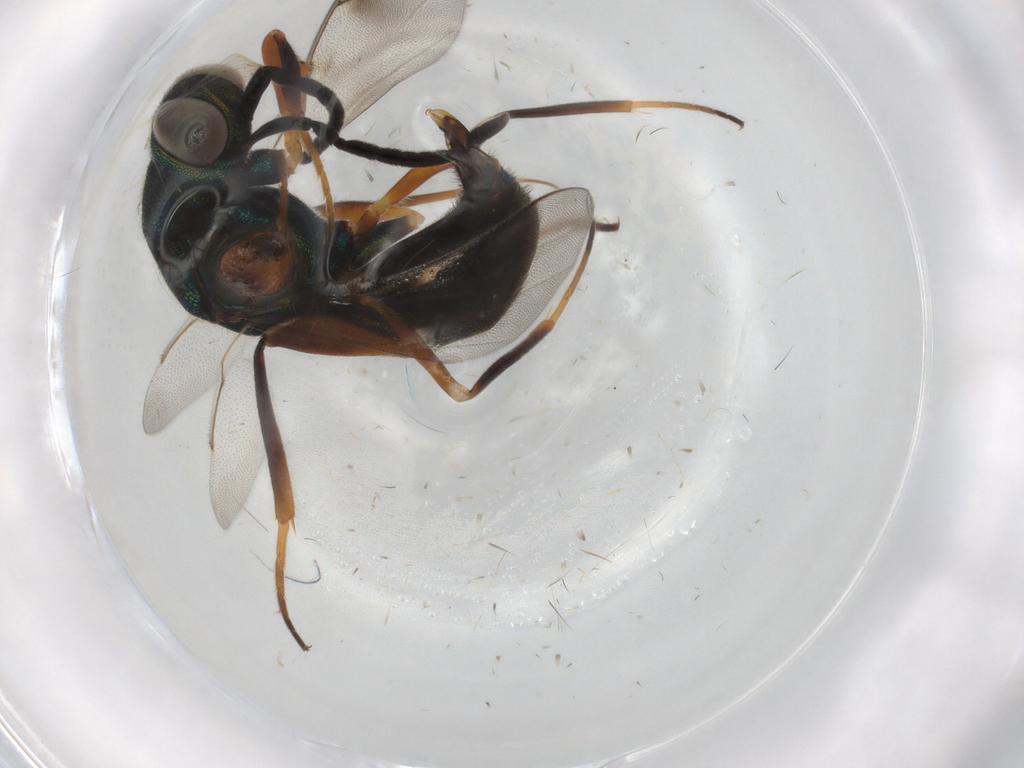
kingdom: Animalia
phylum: Arthropoda
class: Insecta
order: Hymenoptera
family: Lyciscidae
